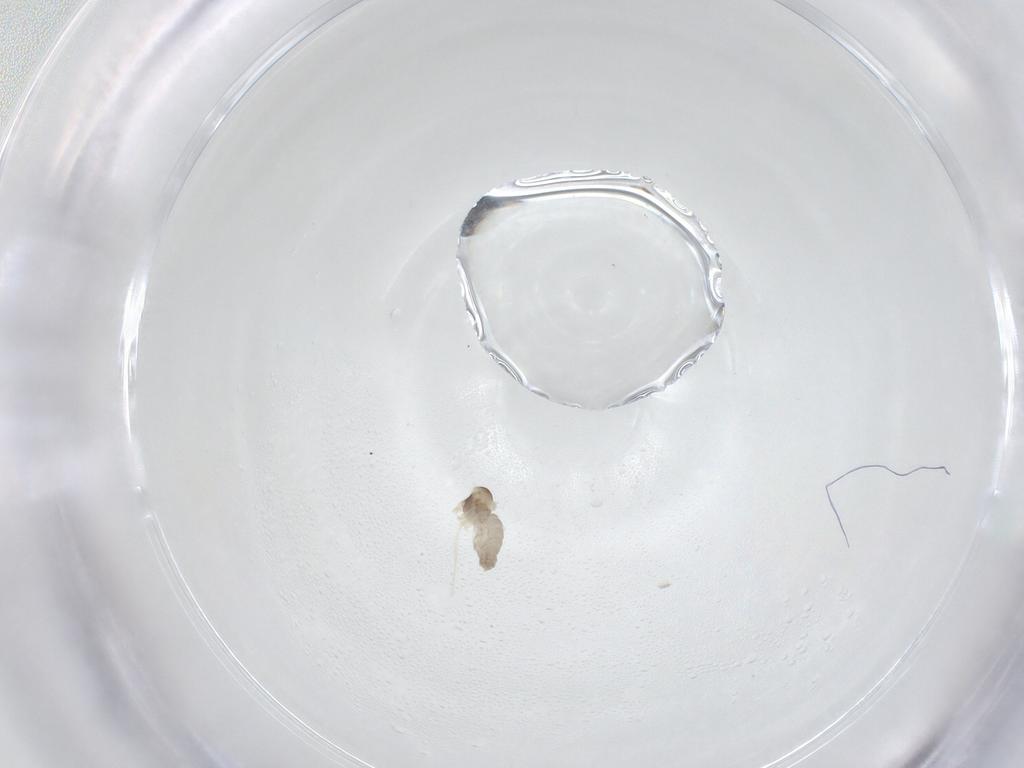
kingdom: Animalia
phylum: Arthropoda
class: Insecta
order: Diptera
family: Cecidomyiidae
